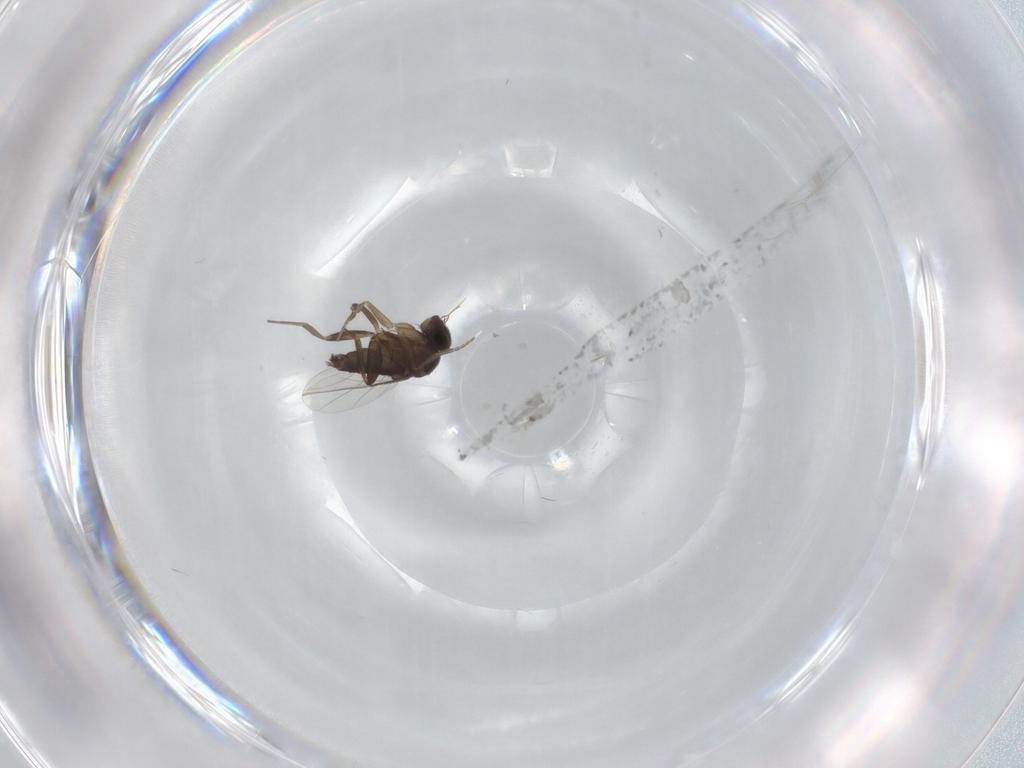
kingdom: Animalia
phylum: Arthropoda
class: Insecta
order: Diptera
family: Phoridae
